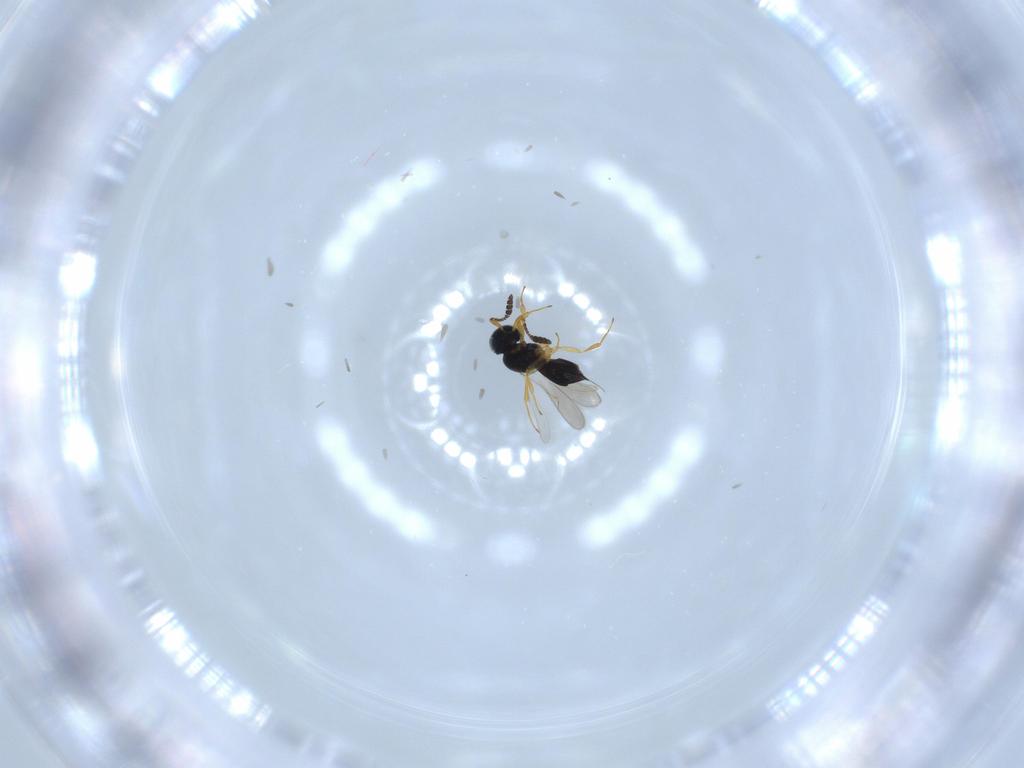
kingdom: Animalia
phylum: Arthropoda
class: Insecta
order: Hymenoptera
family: Scelionidae
